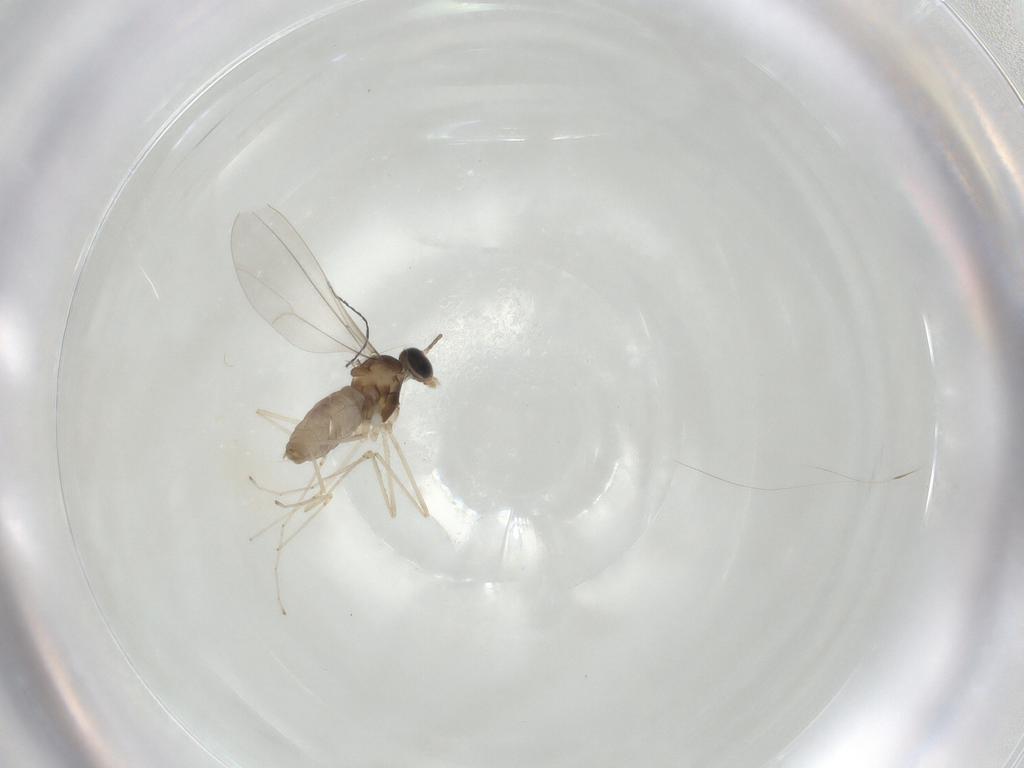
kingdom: Animalia
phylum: Arthropoda
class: Insecta
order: Diptera
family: Cecidomyiidae
